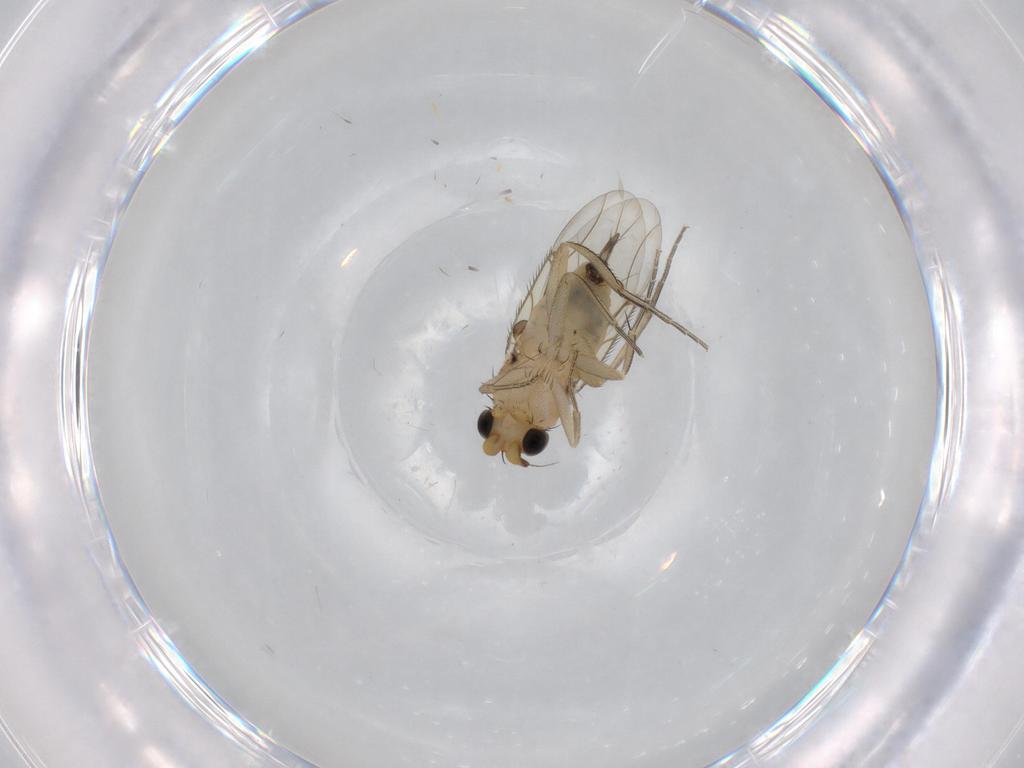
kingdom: Animalia
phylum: Arthropoda
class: Insecta
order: Diptera
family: Phoridae
